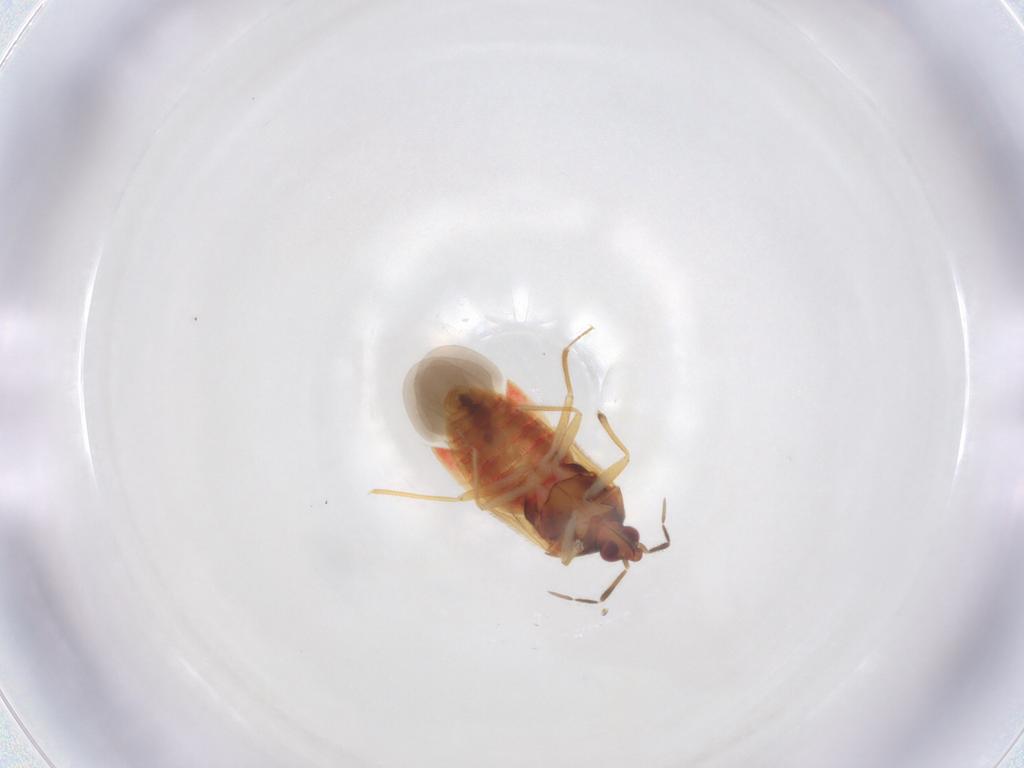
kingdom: Animalia
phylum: Arthropoda
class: Insecta
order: Hemiptera
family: Anthocoridae
